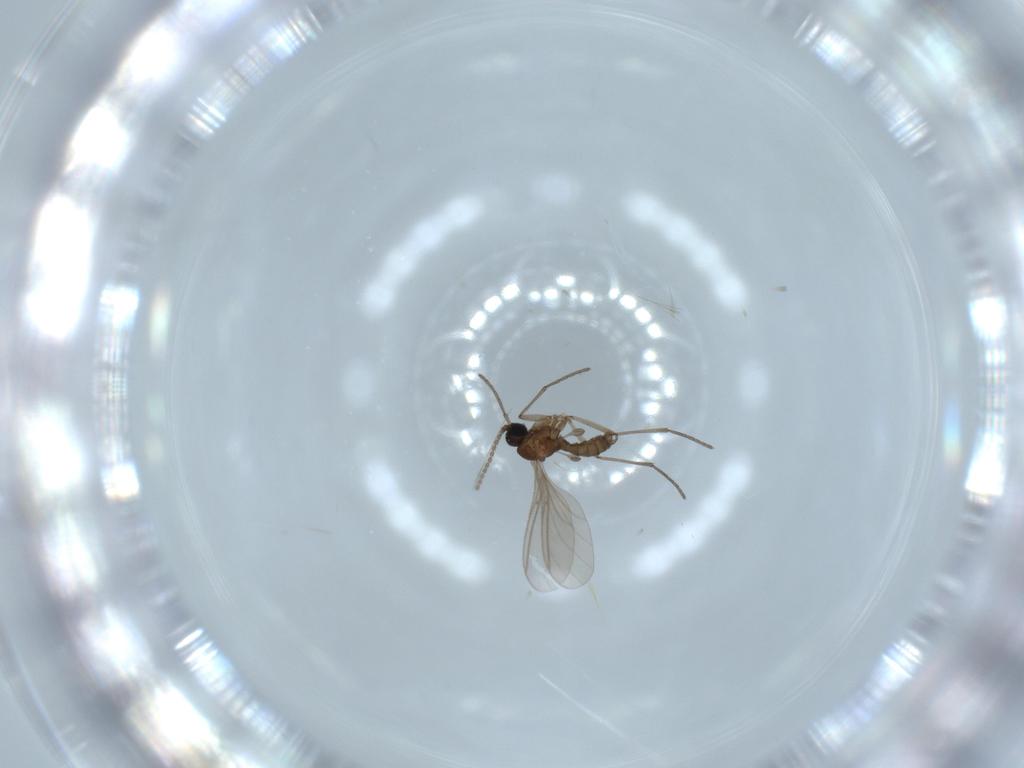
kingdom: Animalia
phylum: Arthropoda
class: Insecta
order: Diptera
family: Sciaridae
